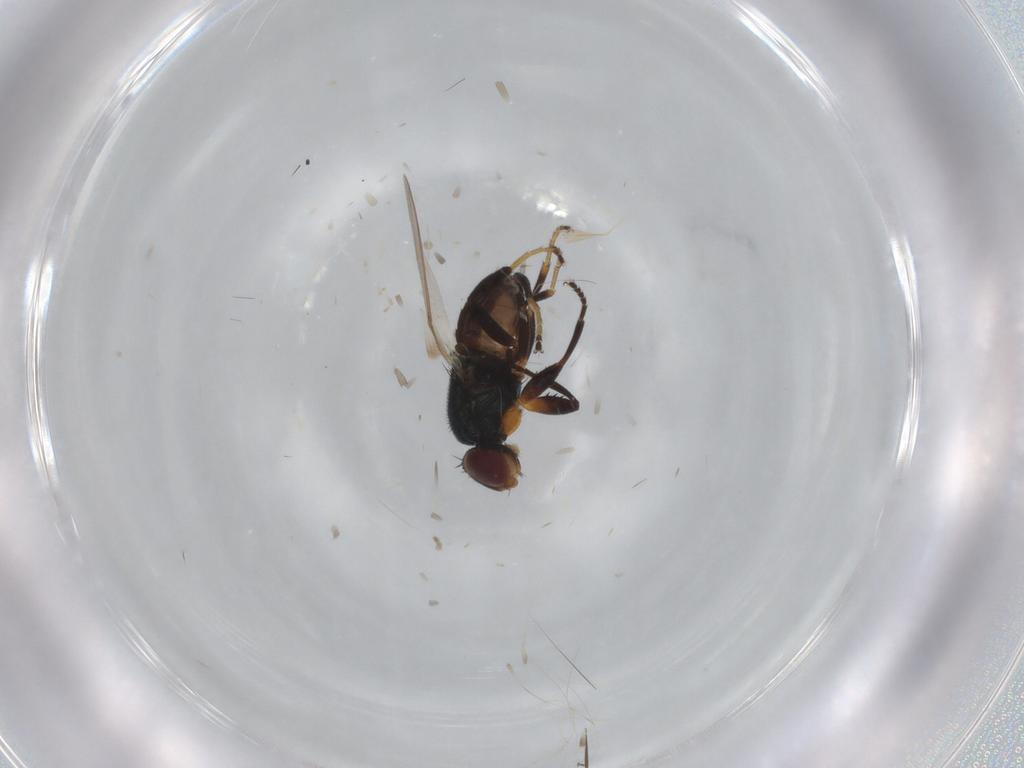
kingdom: Animalia
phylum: Arthropoda
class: Insecta
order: Diptera
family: Chloropidae
